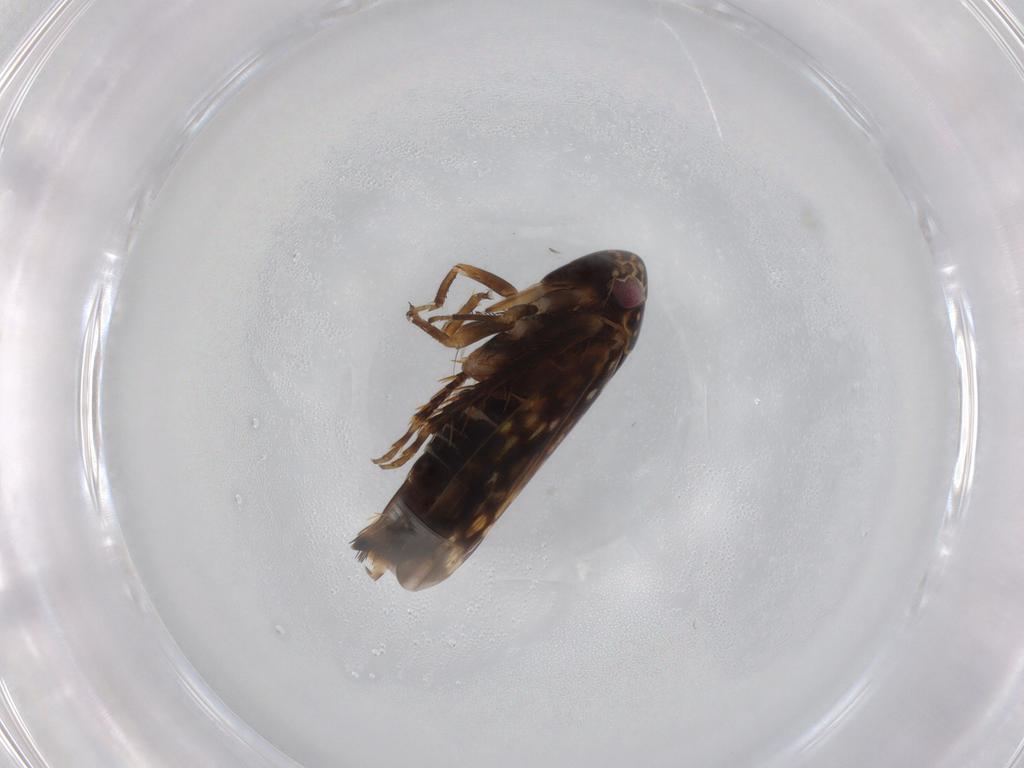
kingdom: Animalia
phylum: Arthropoda
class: Insecta
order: Hemiptera
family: Cicadellidae
